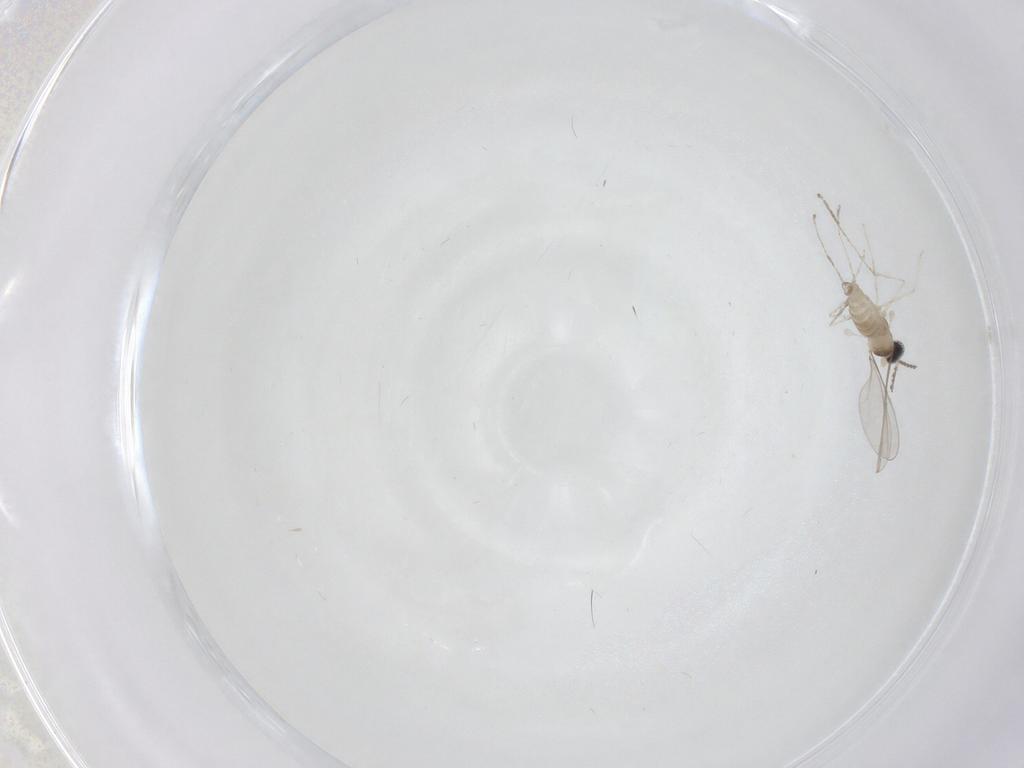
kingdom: Animalia
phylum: Arthropoda
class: Insecta
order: Diptera
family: Cecidomyiidae
